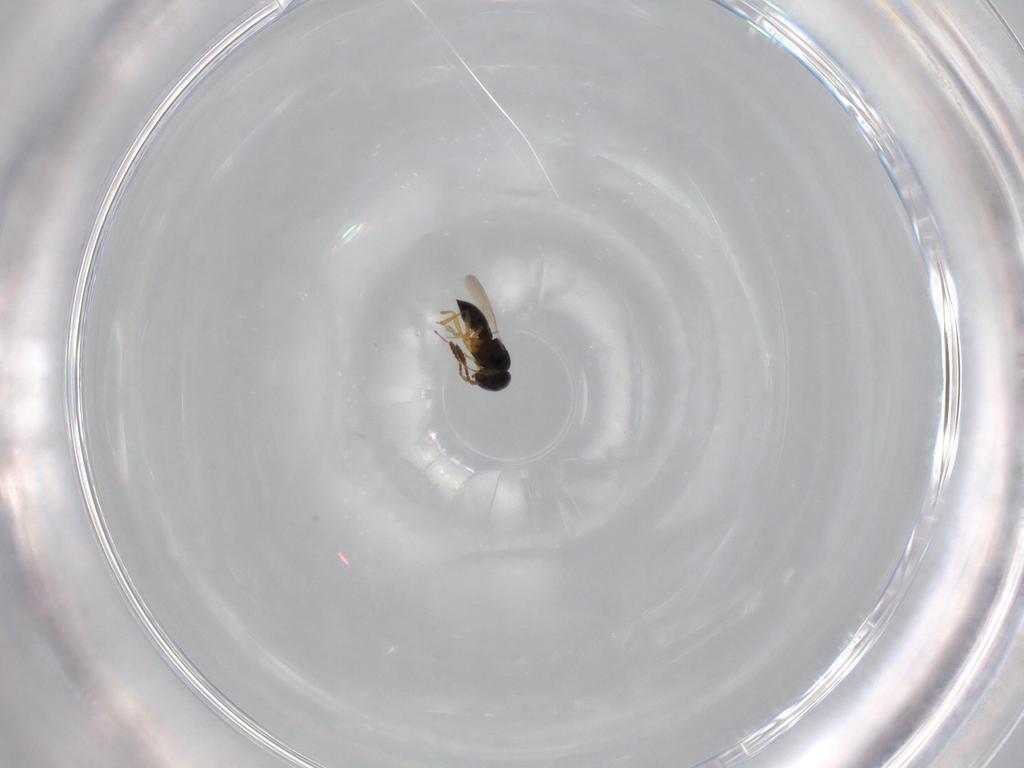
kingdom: Animalia
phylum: Arthropoda
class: Insecta
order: Hymenoptera
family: Scelionidae
